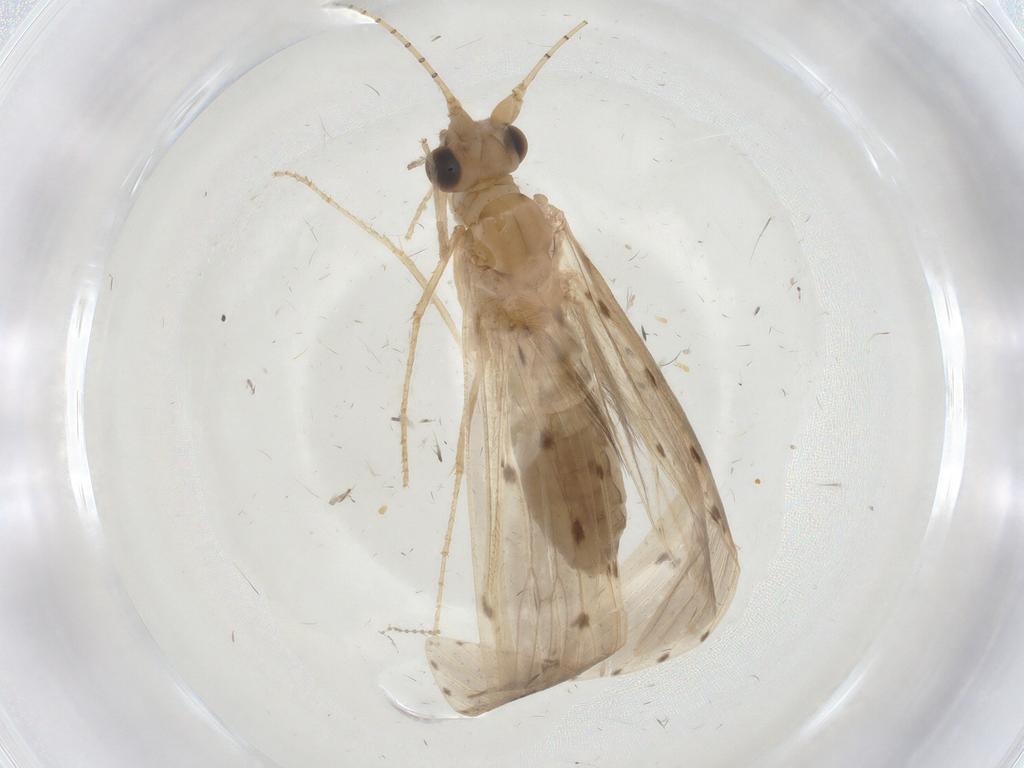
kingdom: Animalia
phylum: Arthropoda
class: Insecta
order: Trichoptera
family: Leptoceridae
